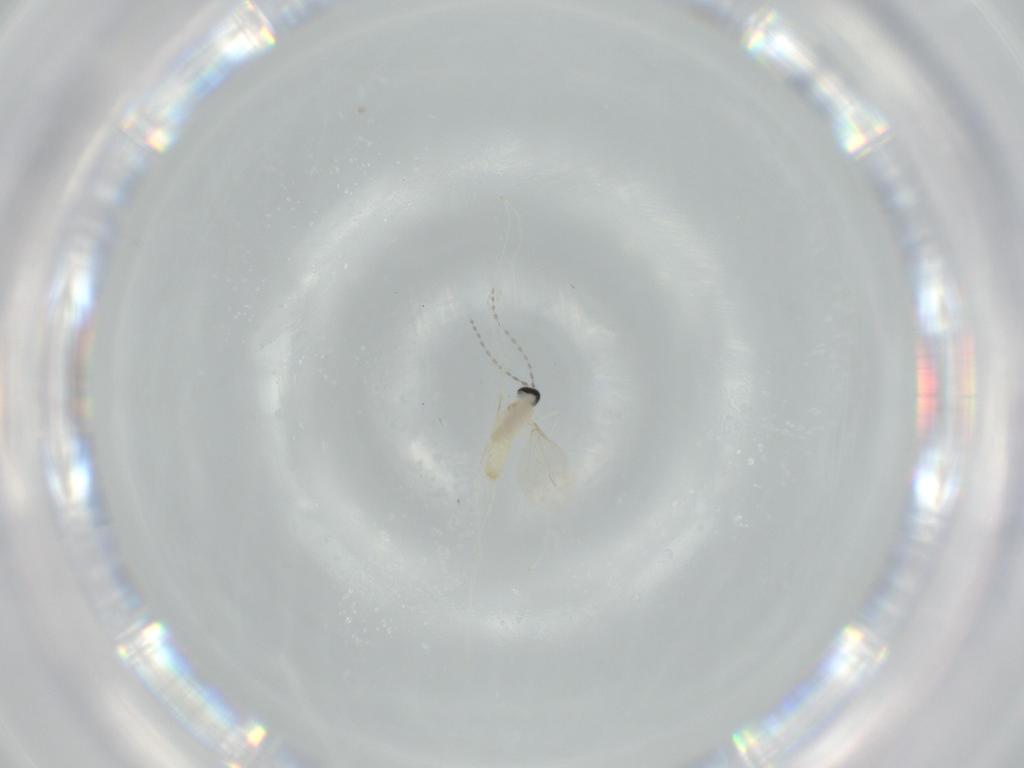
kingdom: Animalia
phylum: Arthropoda
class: Insecta
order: Diptera
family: Cecidomyiidae
